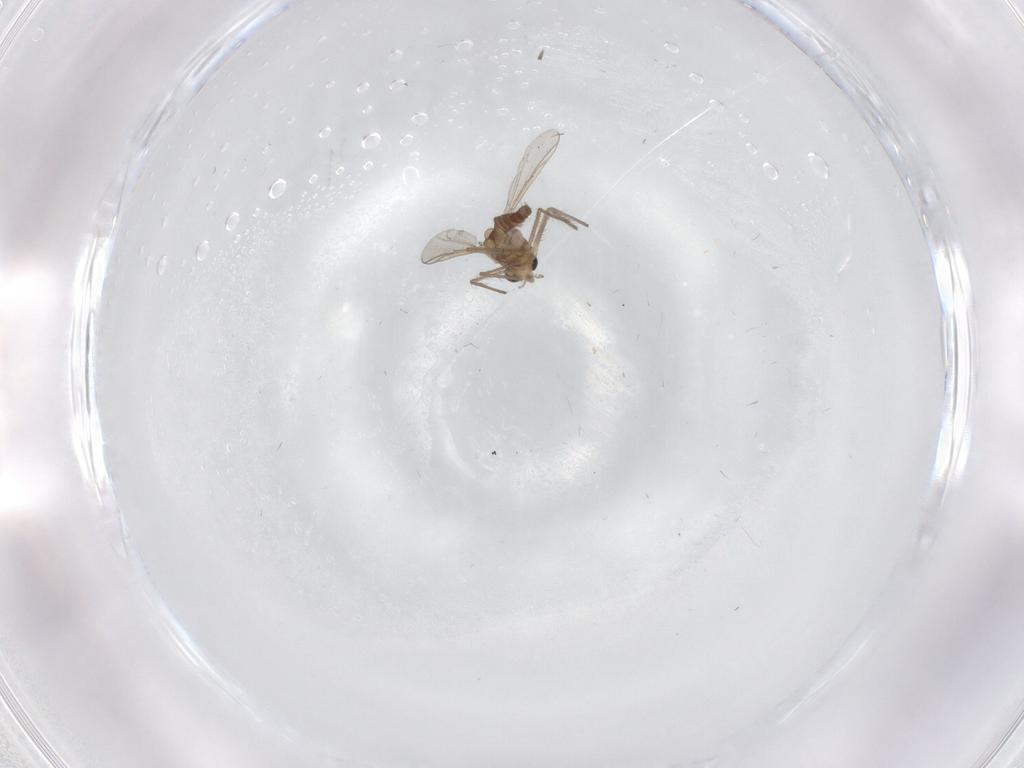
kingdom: Animalia
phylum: Arthropoda
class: Insecta
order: Diptera
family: Chironomidae
